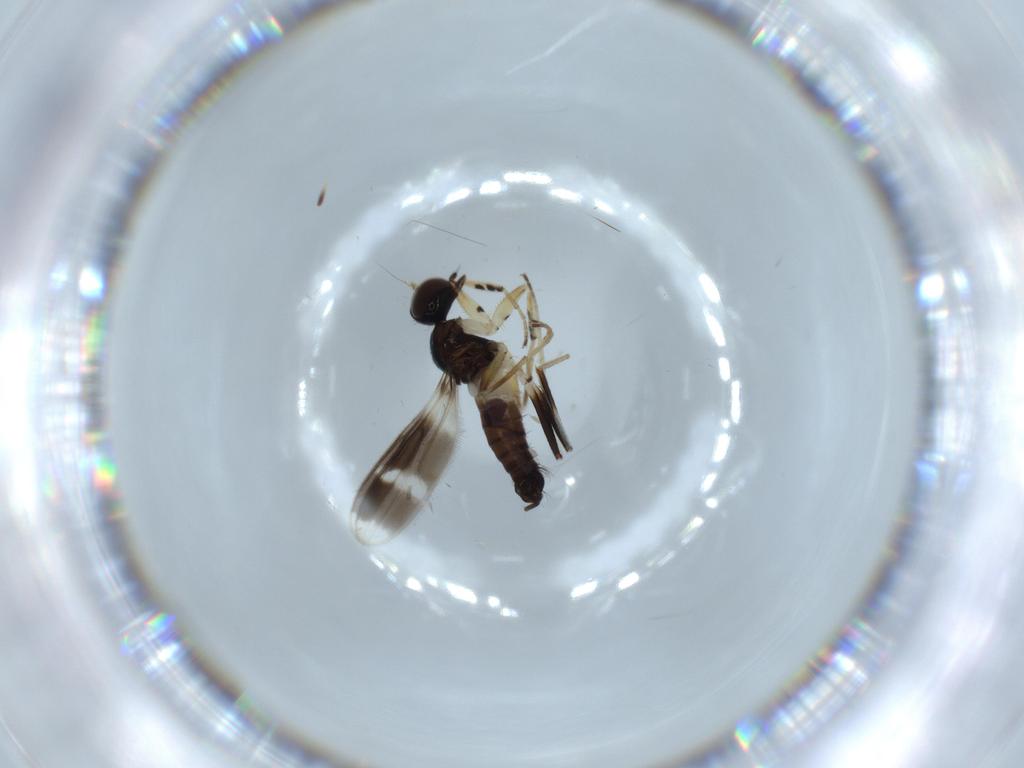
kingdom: Animalia
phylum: Arthropoda
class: Insecta
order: Diptera
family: Hybotidae
